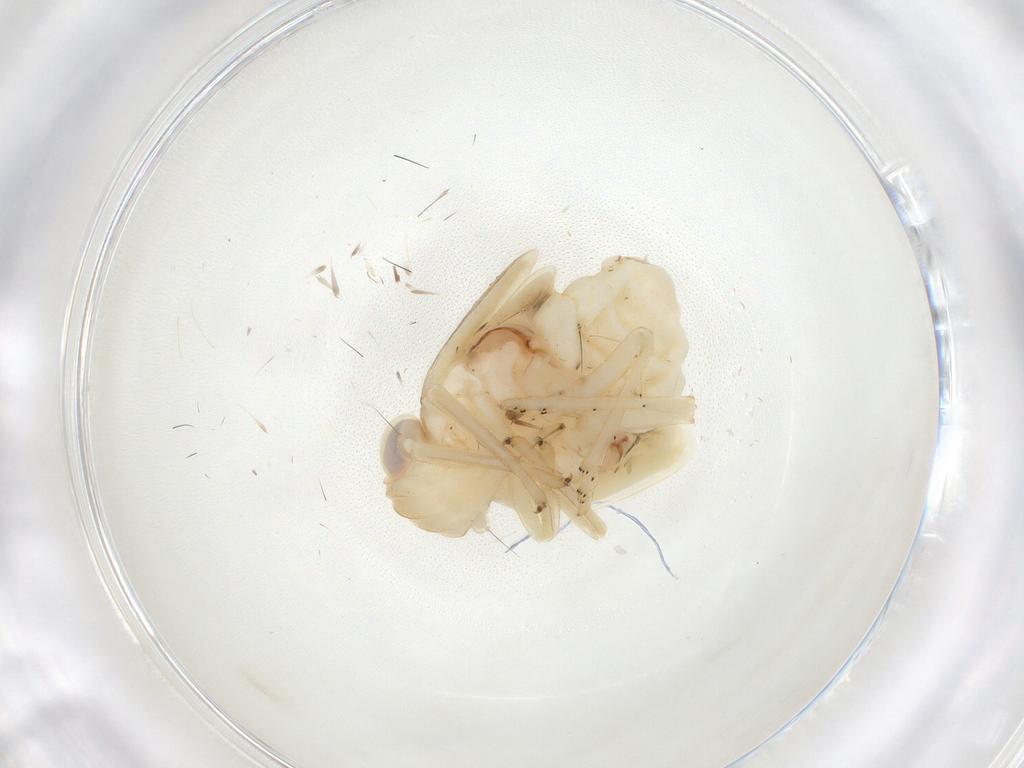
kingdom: Animalia
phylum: Arthropoda
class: Insecta
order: Hemiptera
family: Nogodinidae
